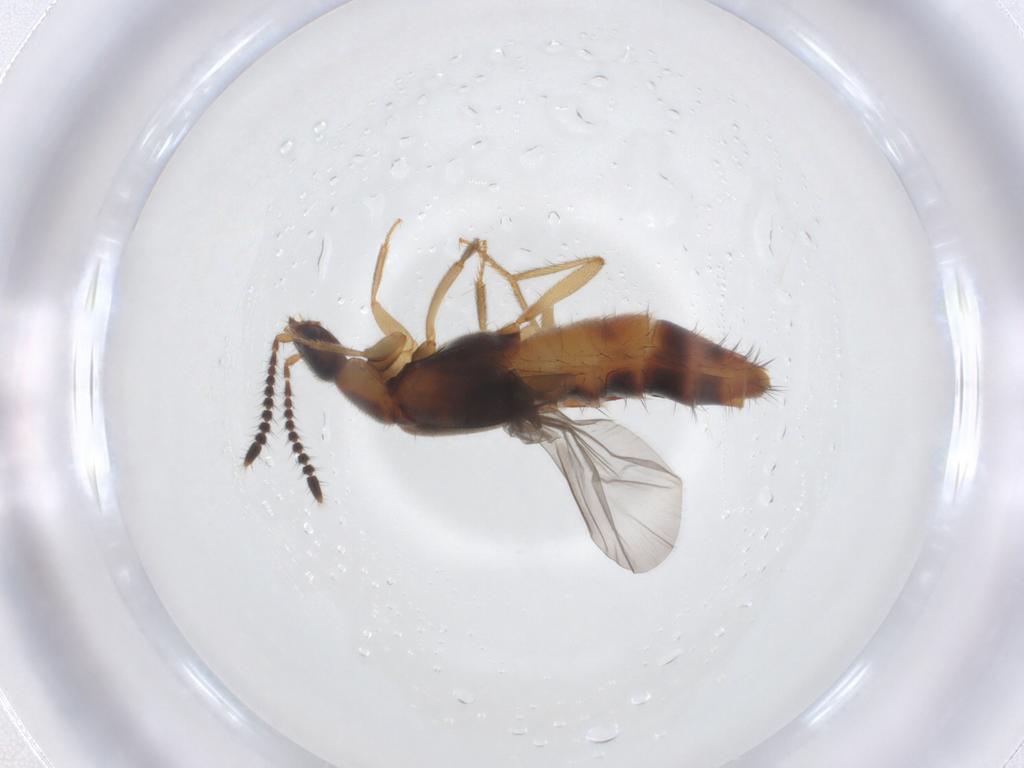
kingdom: Animalia
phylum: Arthropoda
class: Insecta
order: Coleoptera
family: Staphylinidae
